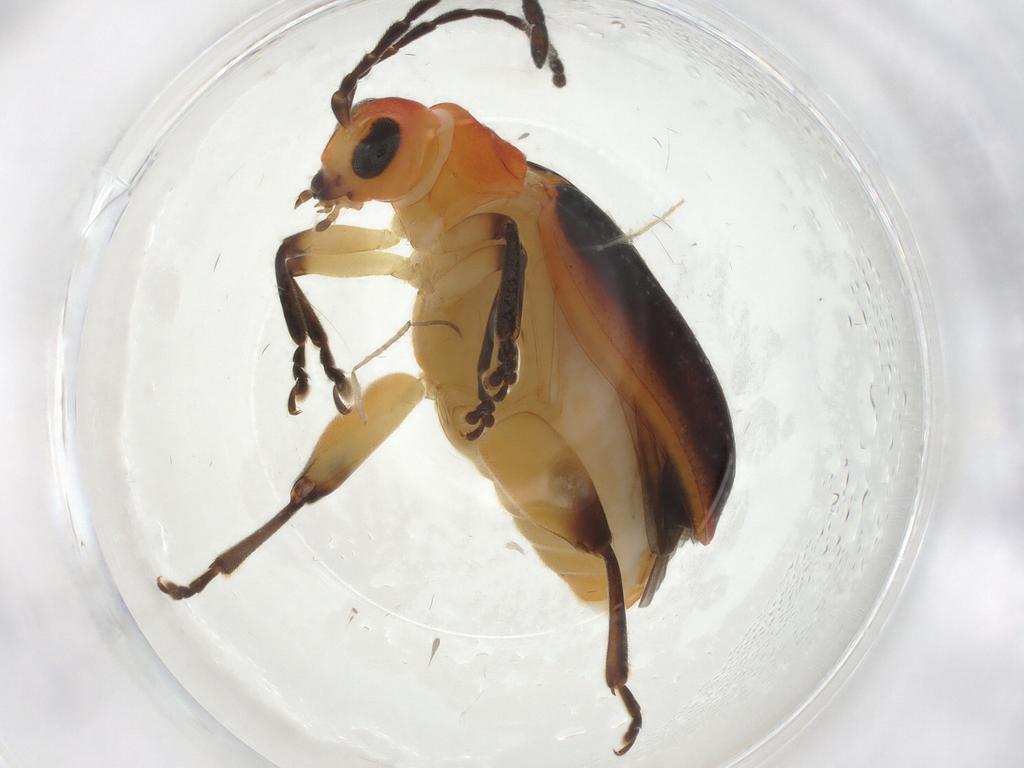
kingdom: Animalia
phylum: Arthropoda
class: Insecta
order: Coleoptera
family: Chrysomelidae
